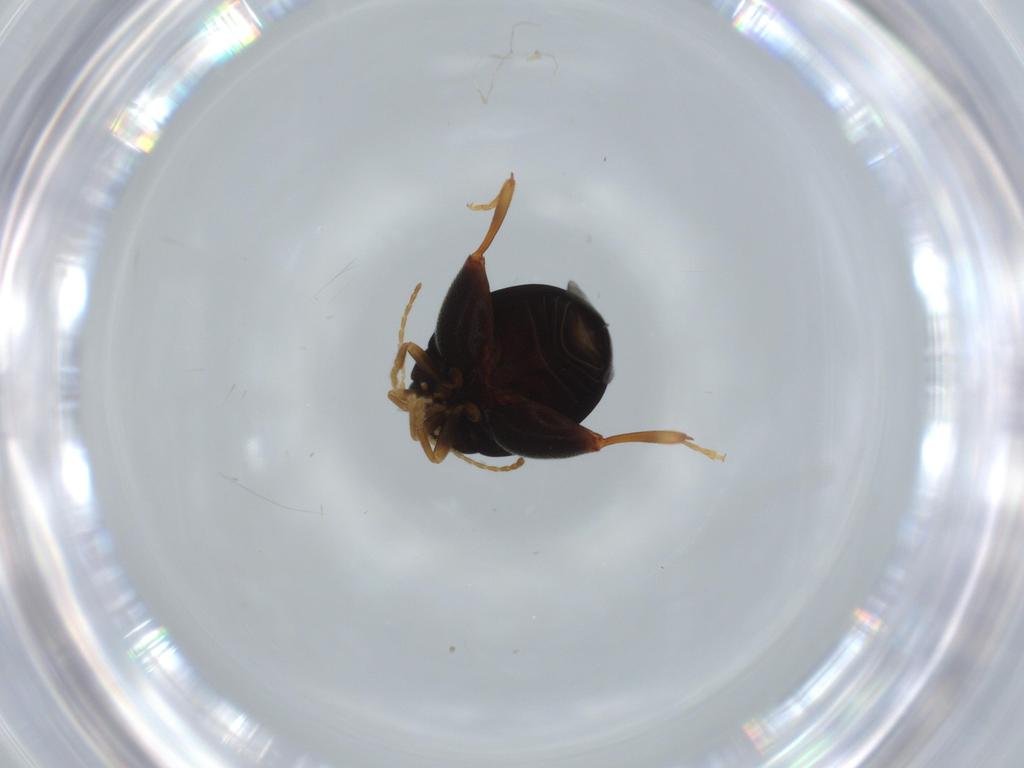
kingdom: Animalia
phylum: Arthropoda
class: Insecta
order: Coleoptera
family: Chrysomelidae
